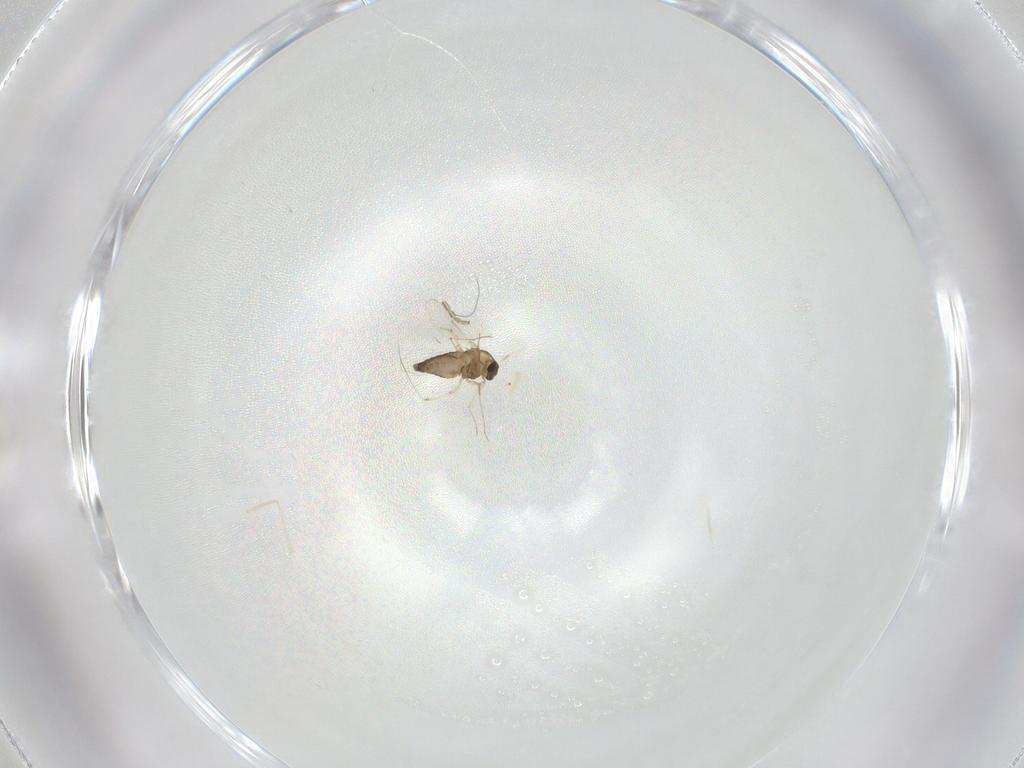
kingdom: Animalia
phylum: Arthropoda
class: Insecta
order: Diptera
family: Phoridae
